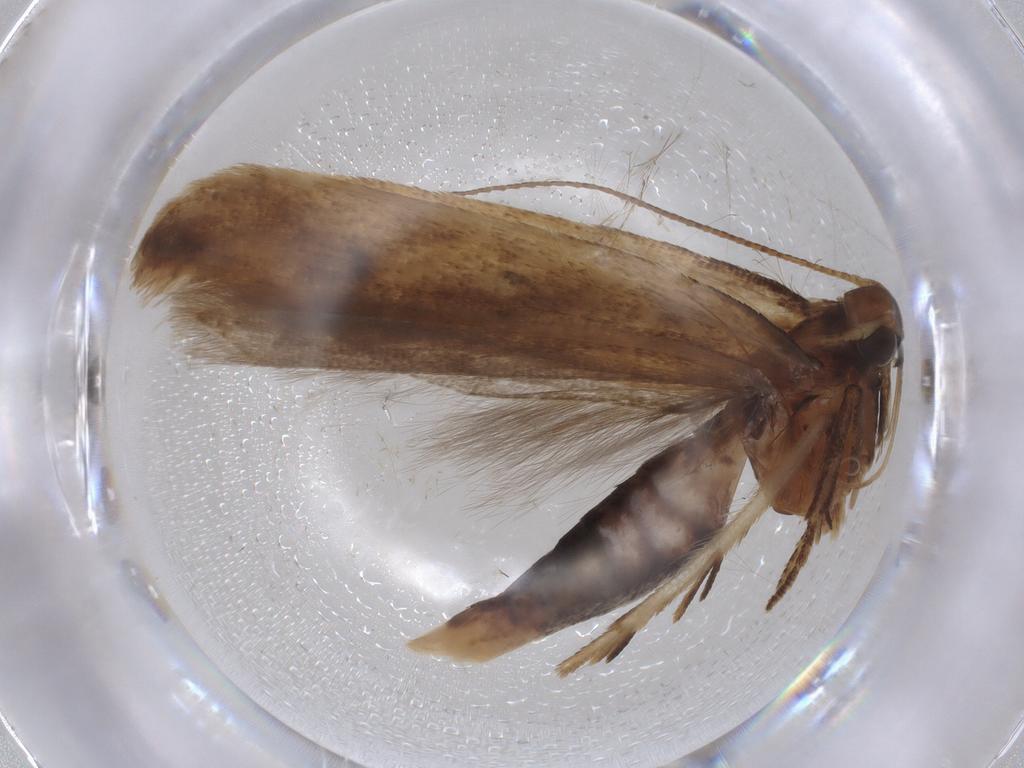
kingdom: Animalia
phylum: Arthropoda
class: Insecta
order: Lepidoptera
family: Gelechiidae
